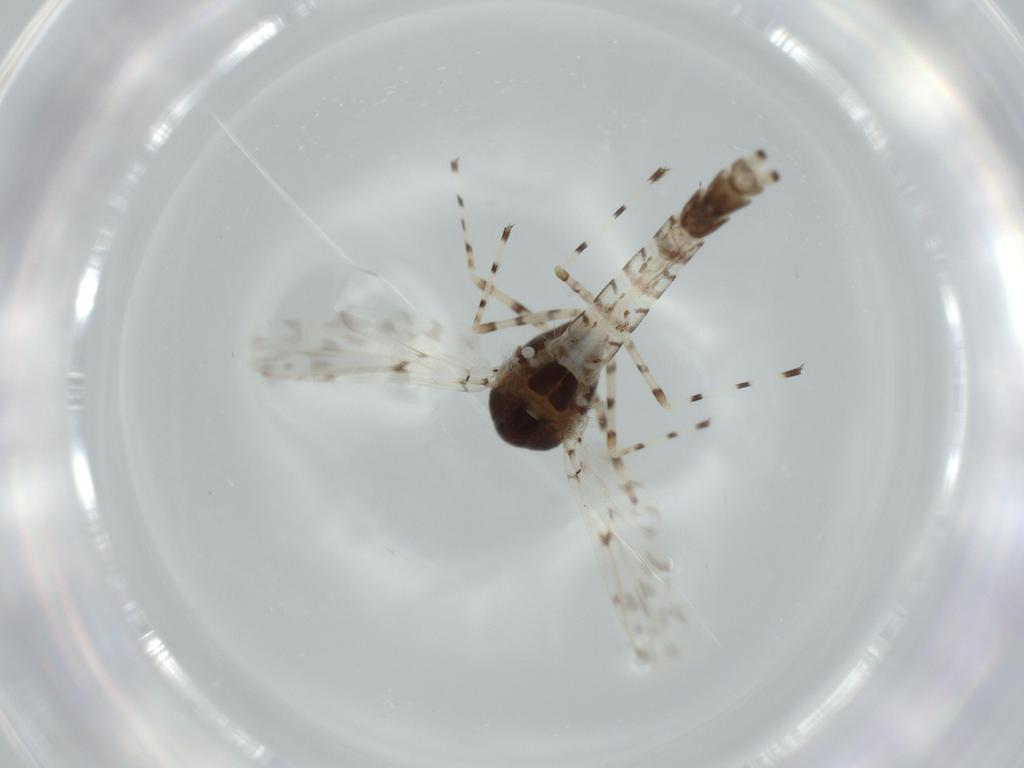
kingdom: Animalia
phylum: Arthropoda
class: Insecta
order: Diptera
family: Chironomidae
